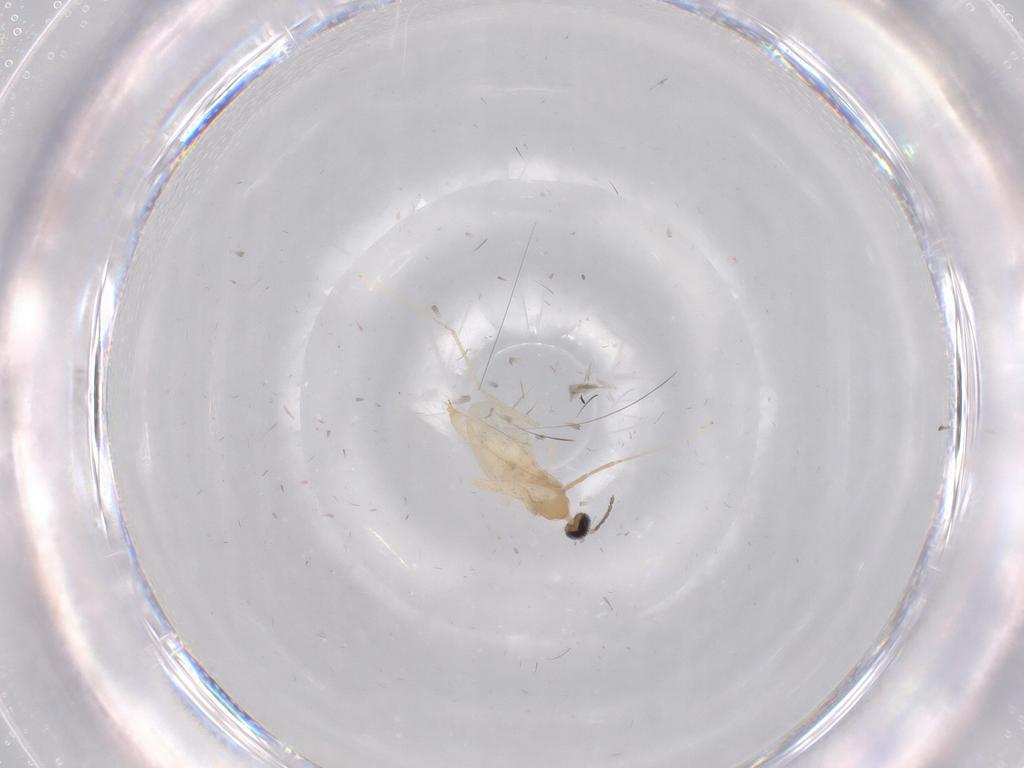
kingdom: Animalia
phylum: Arthropoda
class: Insecta
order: Diptera
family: Cecidomyiidae
